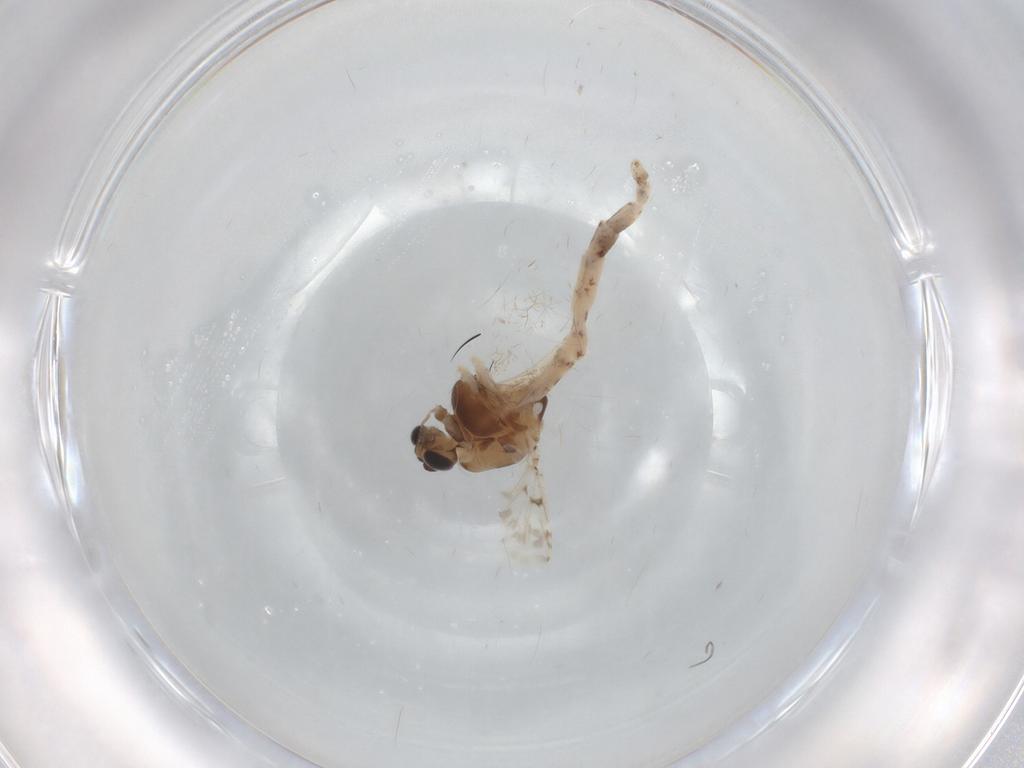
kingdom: Animalia
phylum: Arthropoda
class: Insecta
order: Diptera
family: Chironomidae
